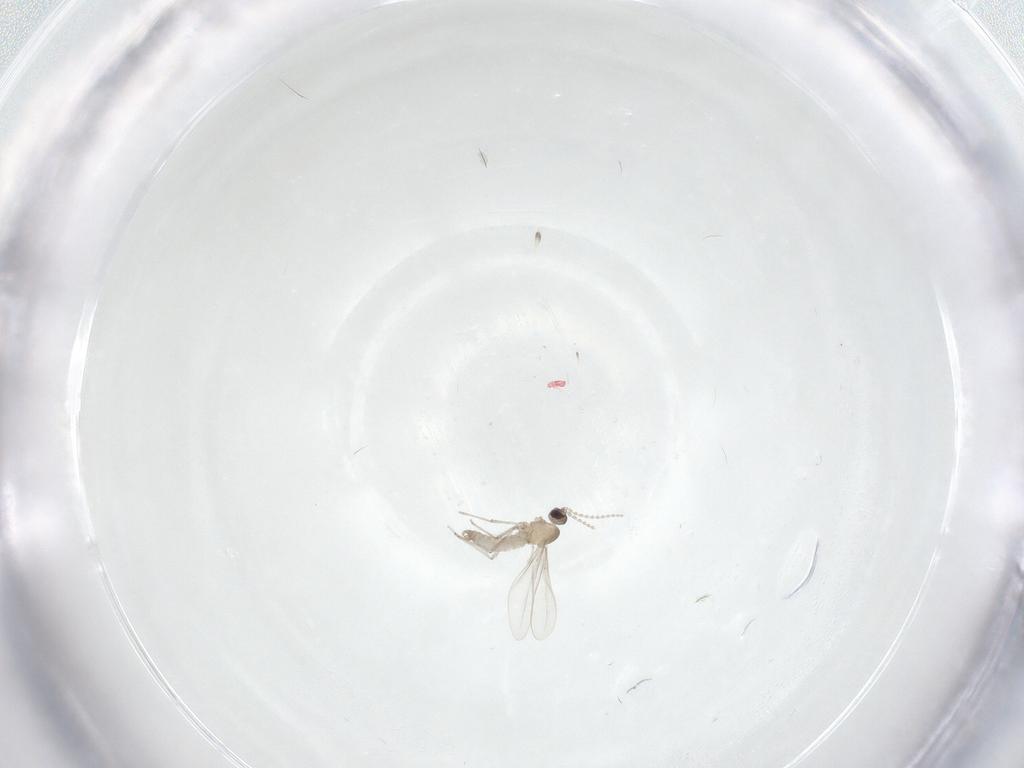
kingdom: Animalia
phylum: Arthropoda
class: Insecta
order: Diptera
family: Cecidomyiidae
